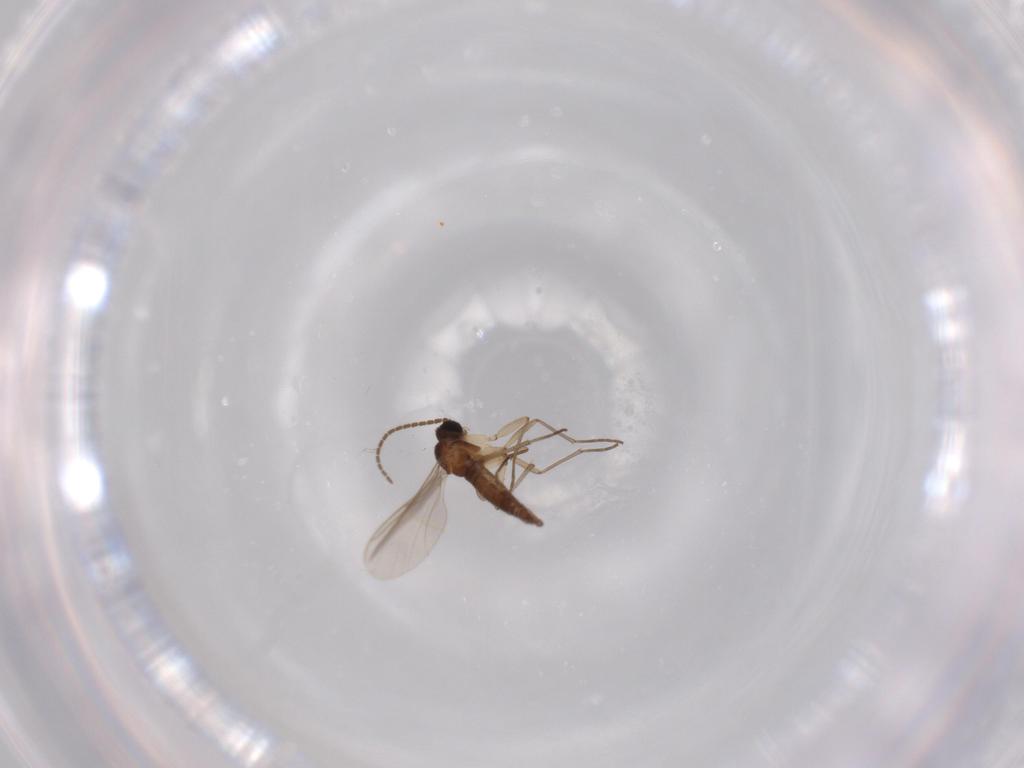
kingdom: Animalia
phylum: Arthropoda
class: Insecta
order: Diptera
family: Sciaridae
